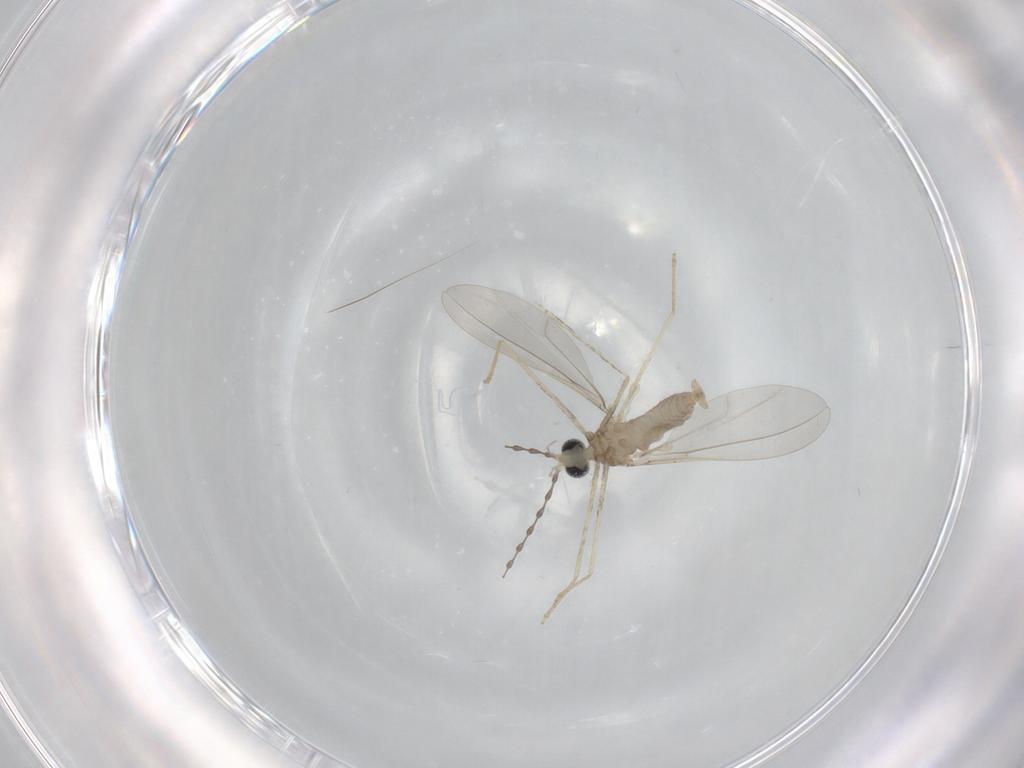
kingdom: Animalia
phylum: Arthropoda
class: Insecta
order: Diptera
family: Cecidomyiidae
